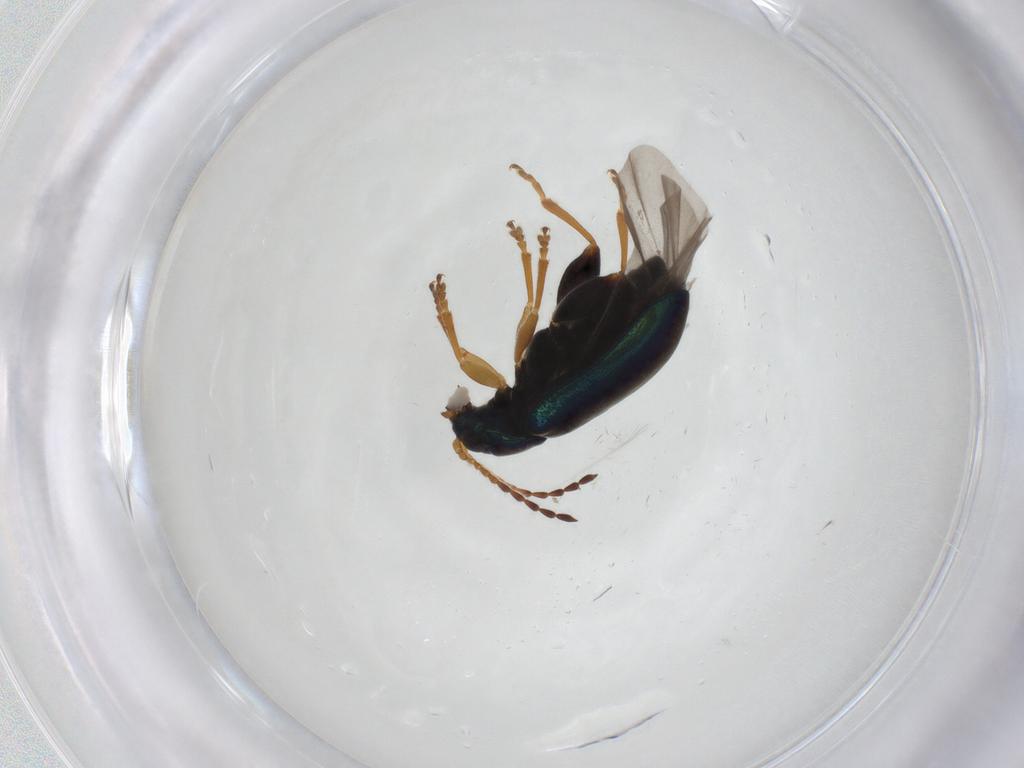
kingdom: Animalia
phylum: Arthropoda
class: Insecta
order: Coleoptera
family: Chrysomelidae
